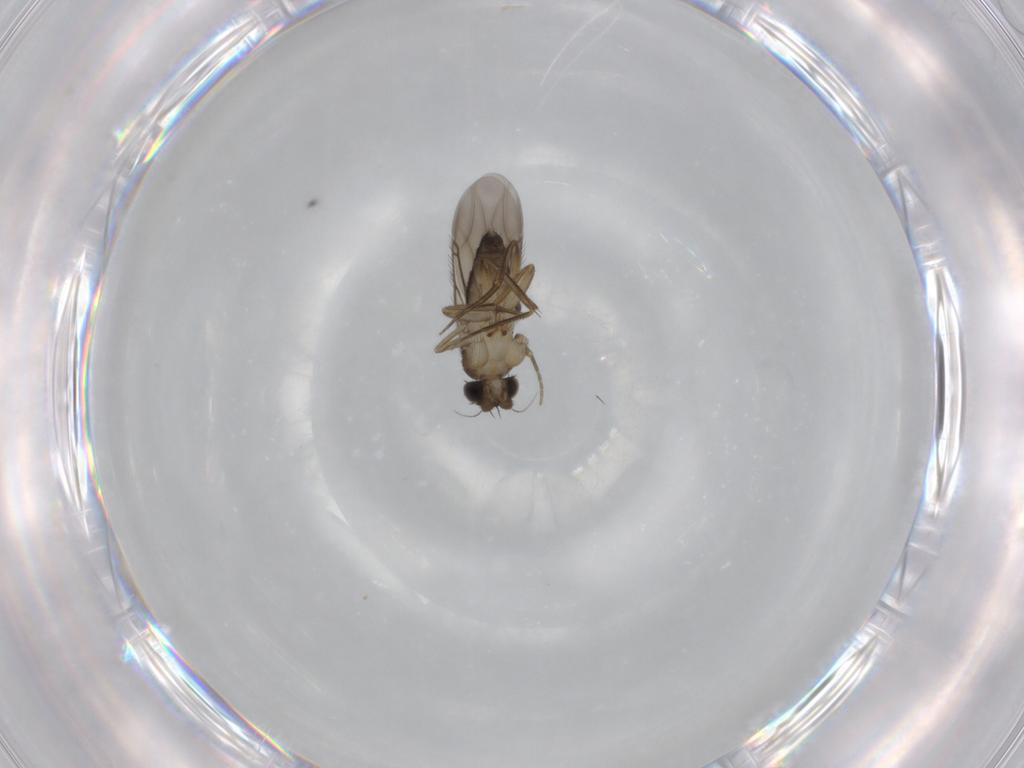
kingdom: Animalia
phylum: Arthropoda
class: Insecta
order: Diptera
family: Phoridae
